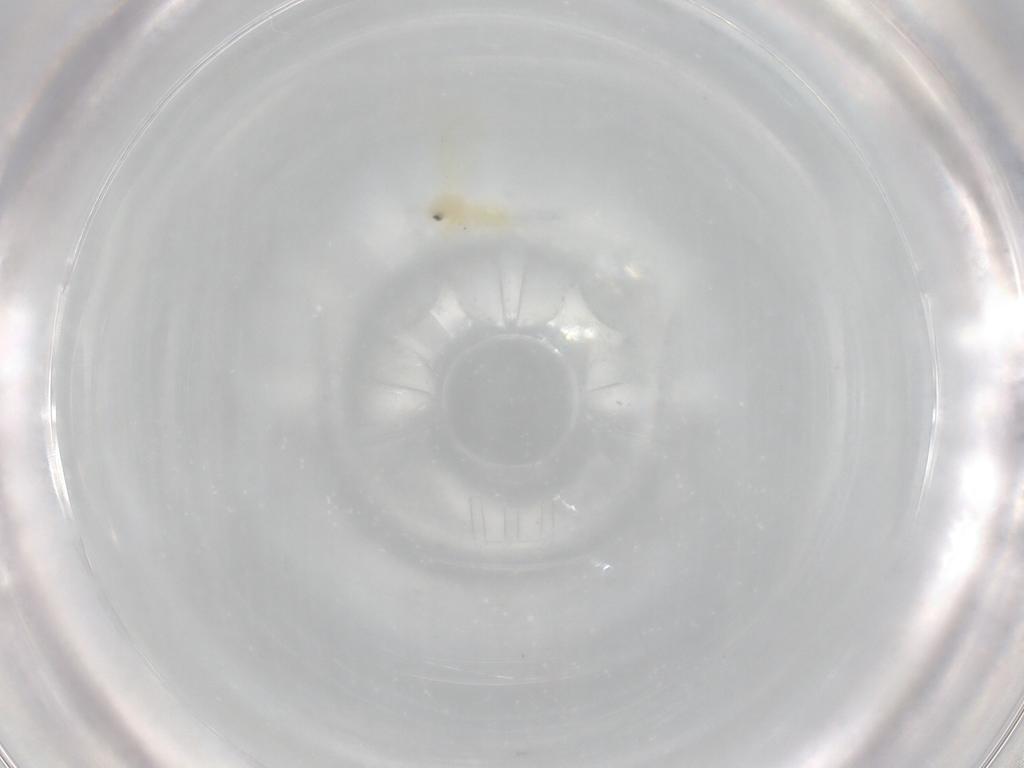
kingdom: Animalia
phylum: Arthropoda
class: Insecta
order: Hemiptera
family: Aleyrodidae
